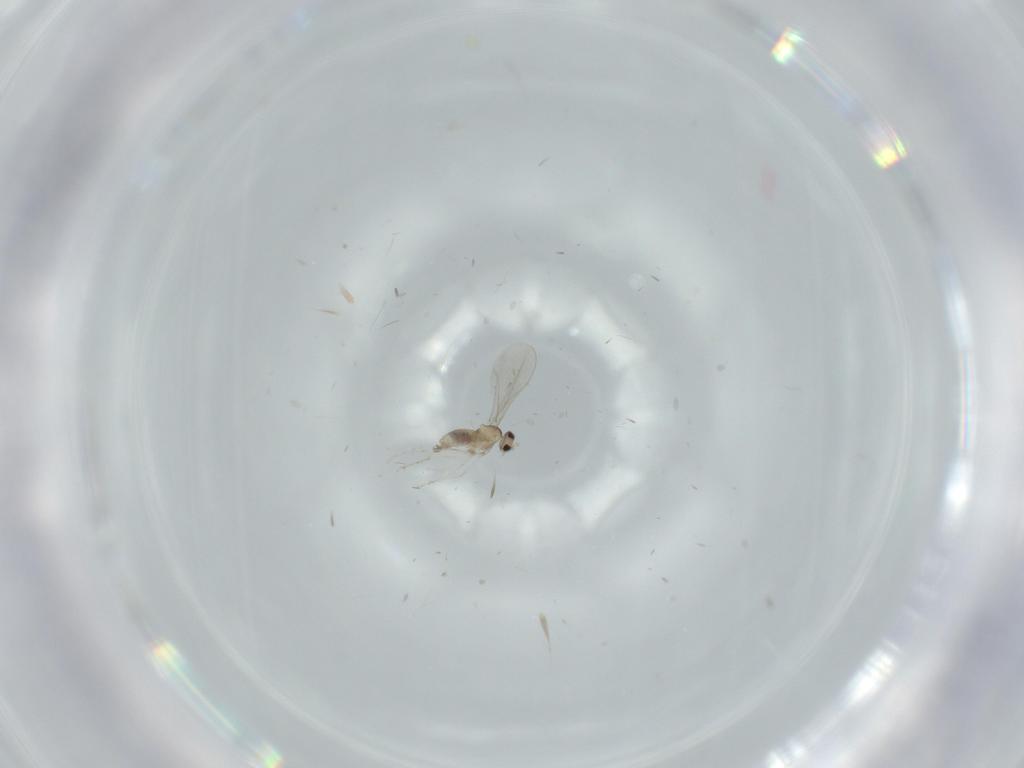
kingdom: Animalia
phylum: Arthropoda
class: Insecta
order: Diptera
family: Cecidomyiidae
